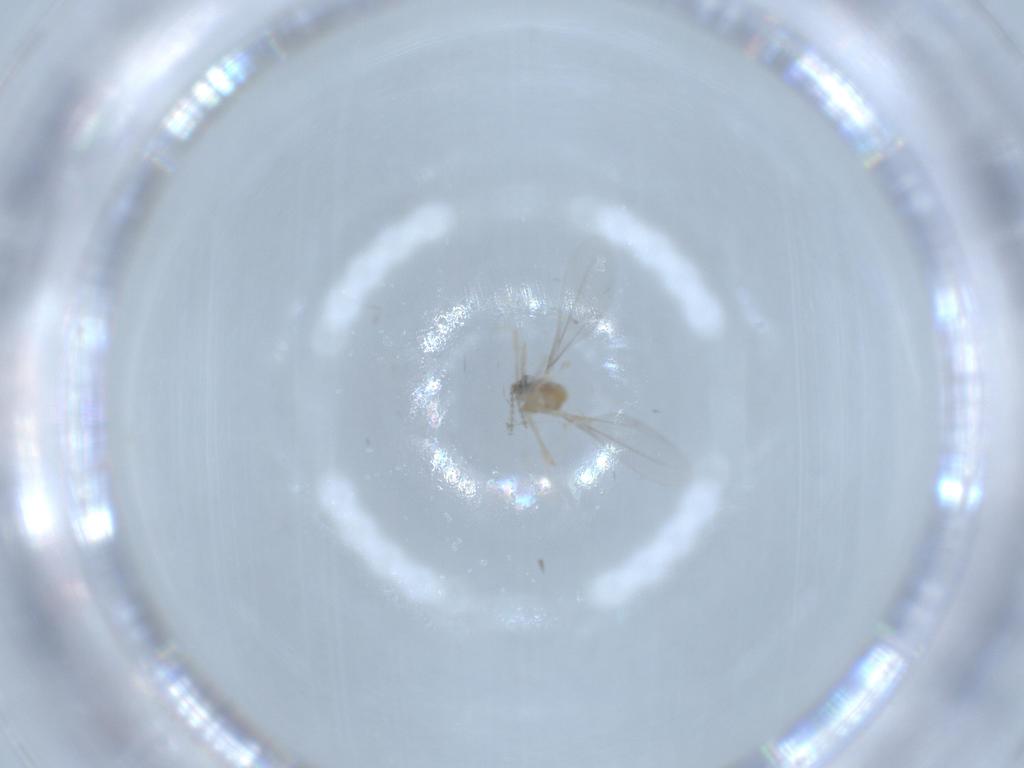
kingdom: Animalia
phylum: Arthropoda
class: Insecta
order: Diptera
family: Cecidomyiidae
